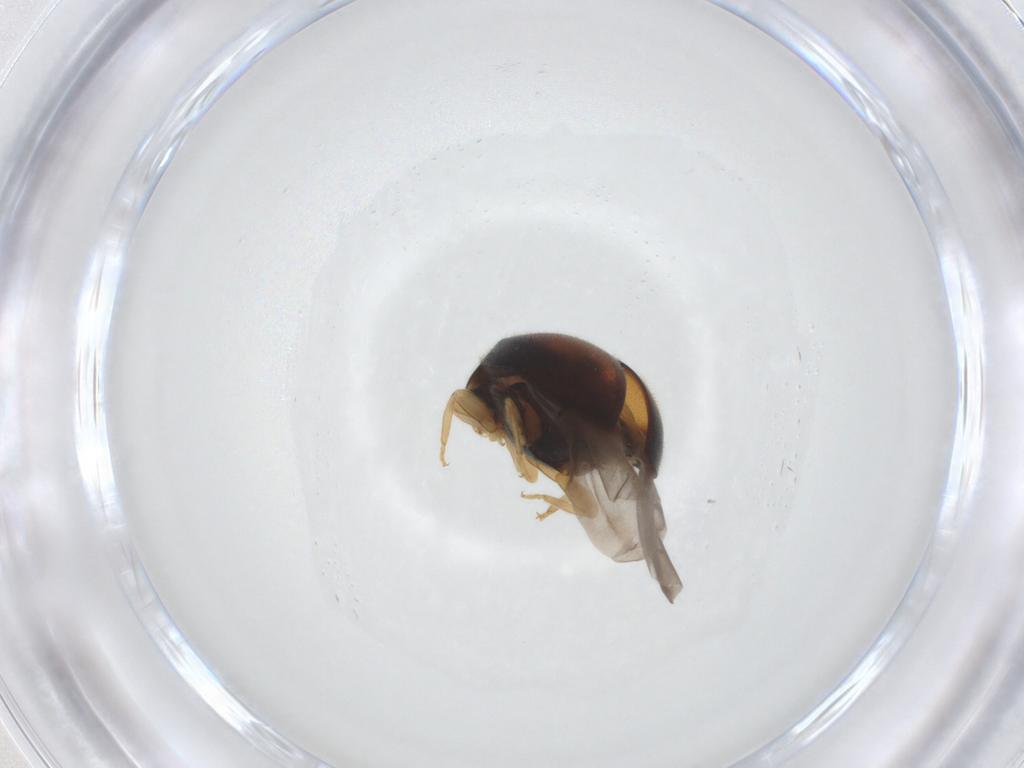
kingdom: Animalia
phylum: Arthropoda
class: Insecta
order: Coleoptera
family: Coccinellidae
